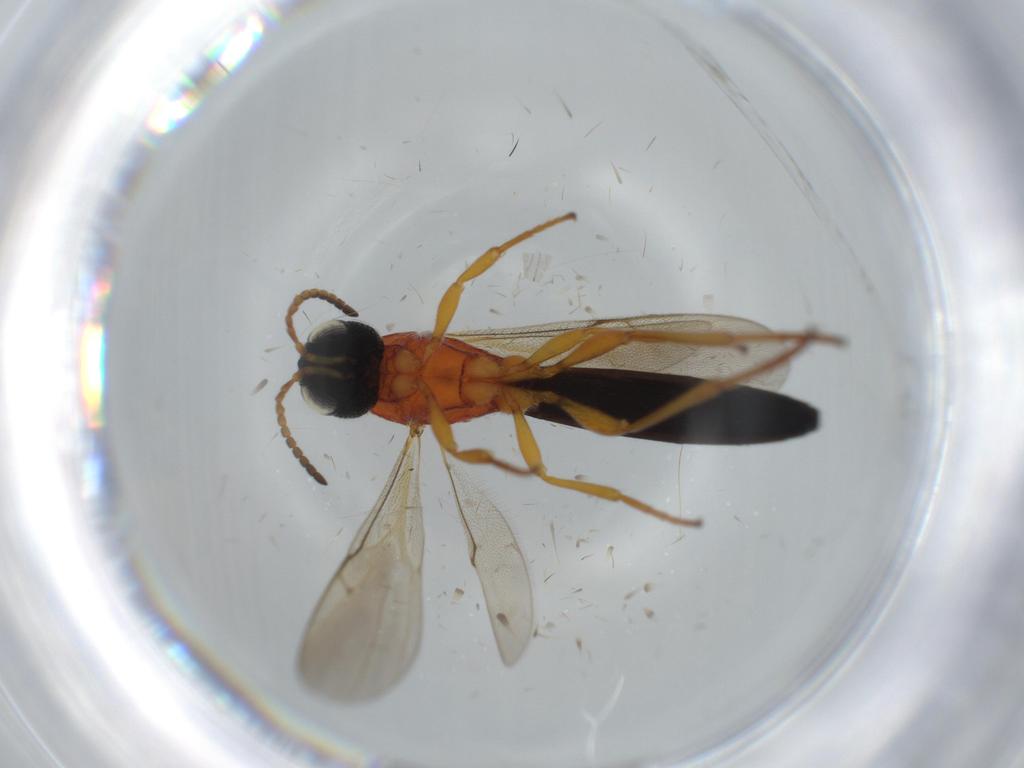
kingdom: Animalia
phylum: Arthropoda
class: Insecta
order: Hymenoptera
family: Scelionidae
